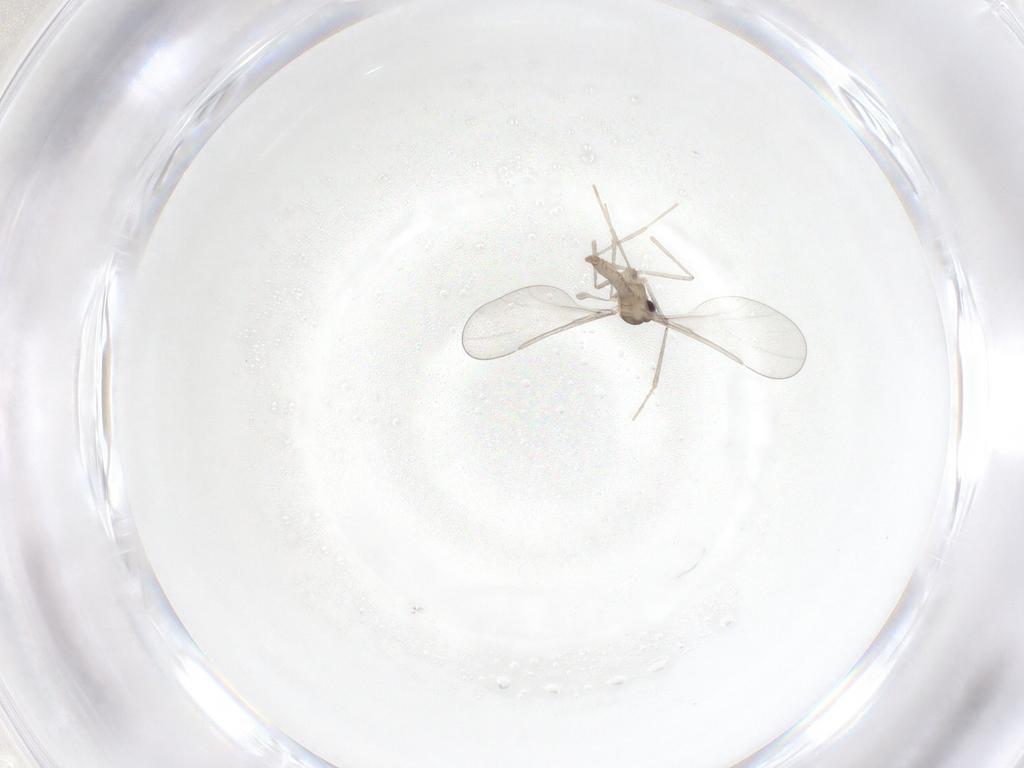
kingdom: Animalia
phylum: Arthropoda
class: Insecta
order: Diptera
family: Cecidomyiidae
